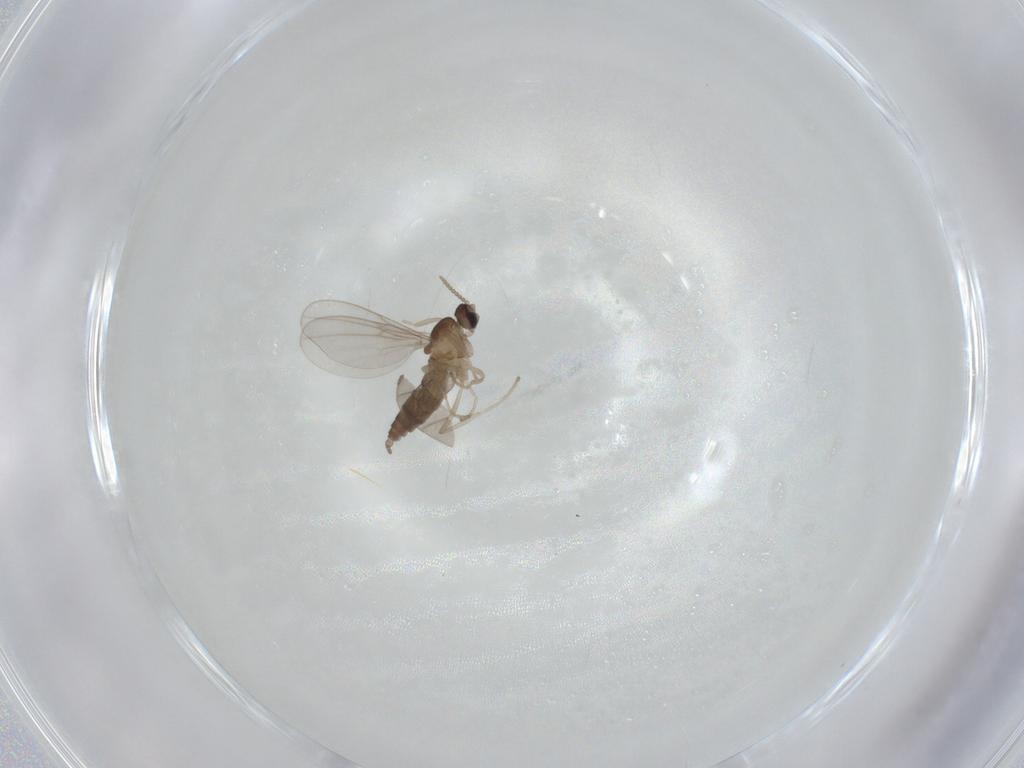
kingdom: Animalia
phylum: Arthropoda
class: Insecta
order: Diptera
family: Cecidomyiidae
